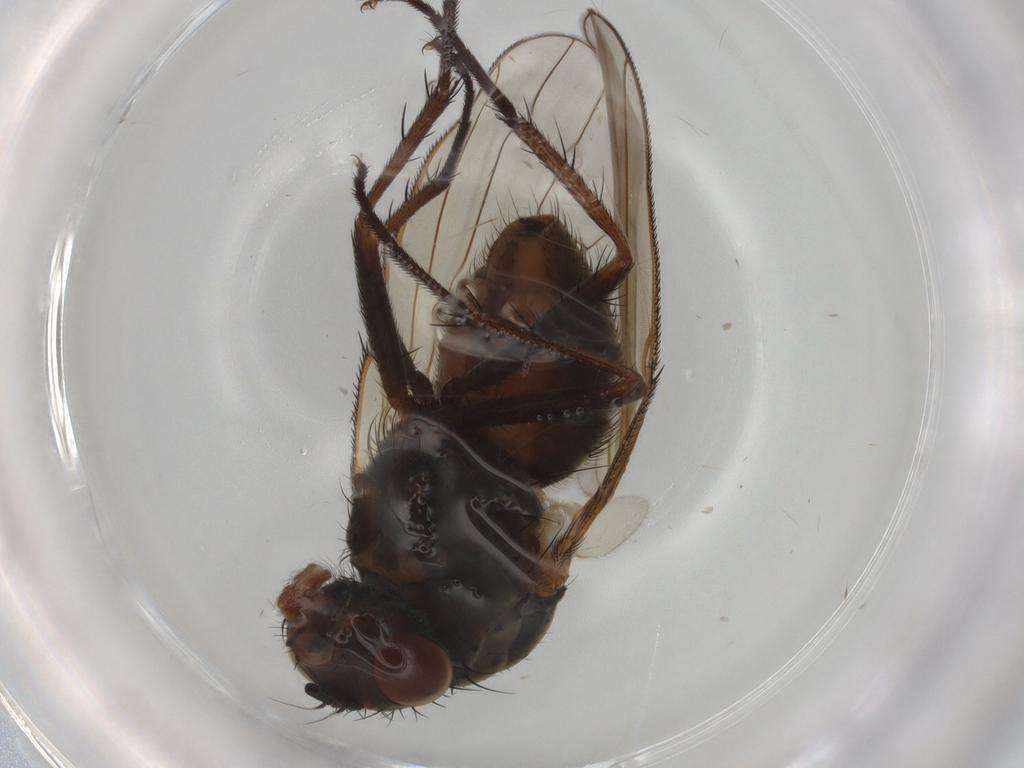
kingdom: Animalia
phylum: Arthropoda
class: Insecta
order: Diptera
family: Anthomyiidae
